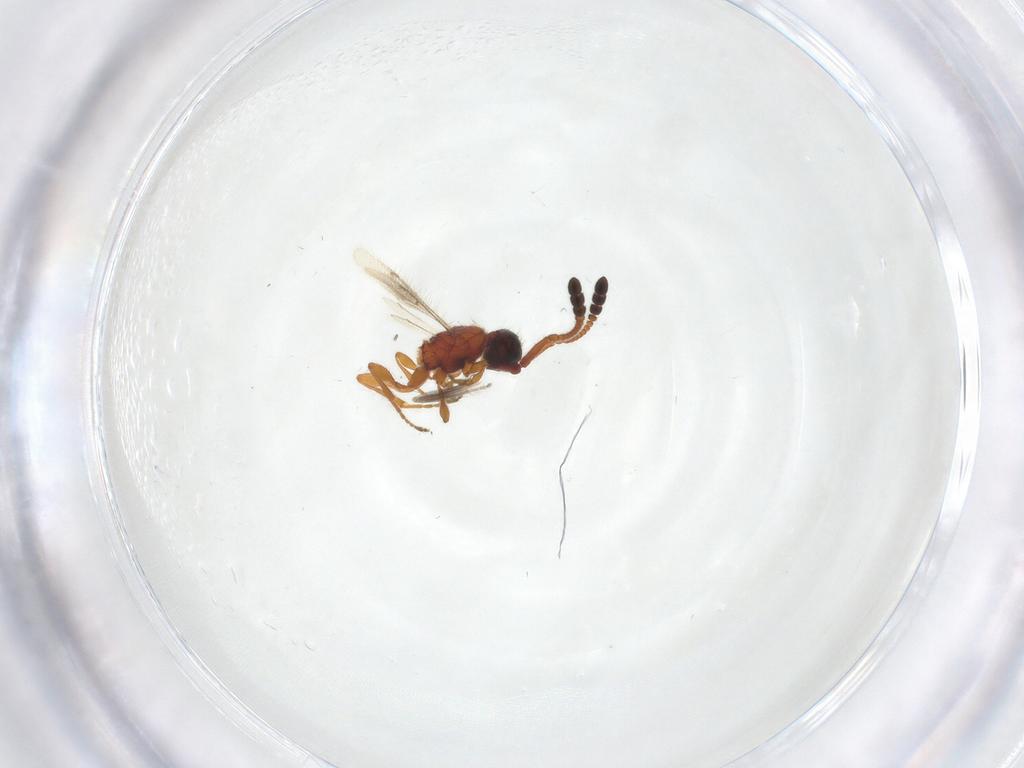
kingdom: Animalia
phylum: Arthropoda
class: Insecta
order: Hymenoptera
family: Diapriidae
